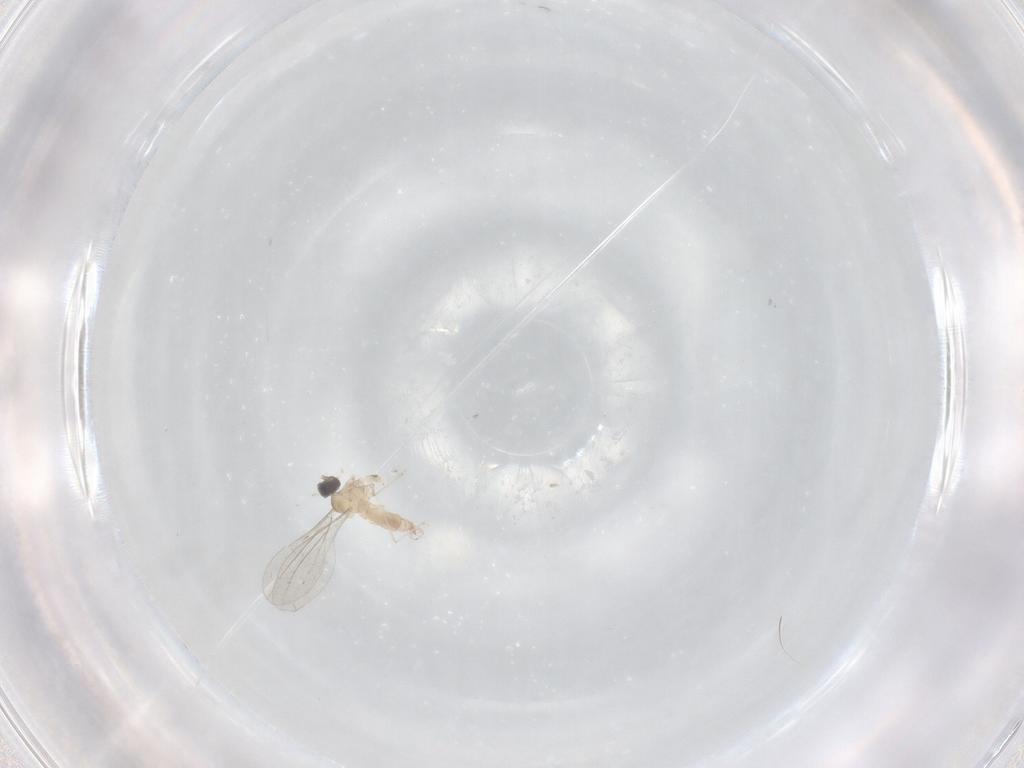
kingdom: Animalia
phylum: Arthropoda
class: Insecta
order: Diptera
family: Cecidomyiidae
